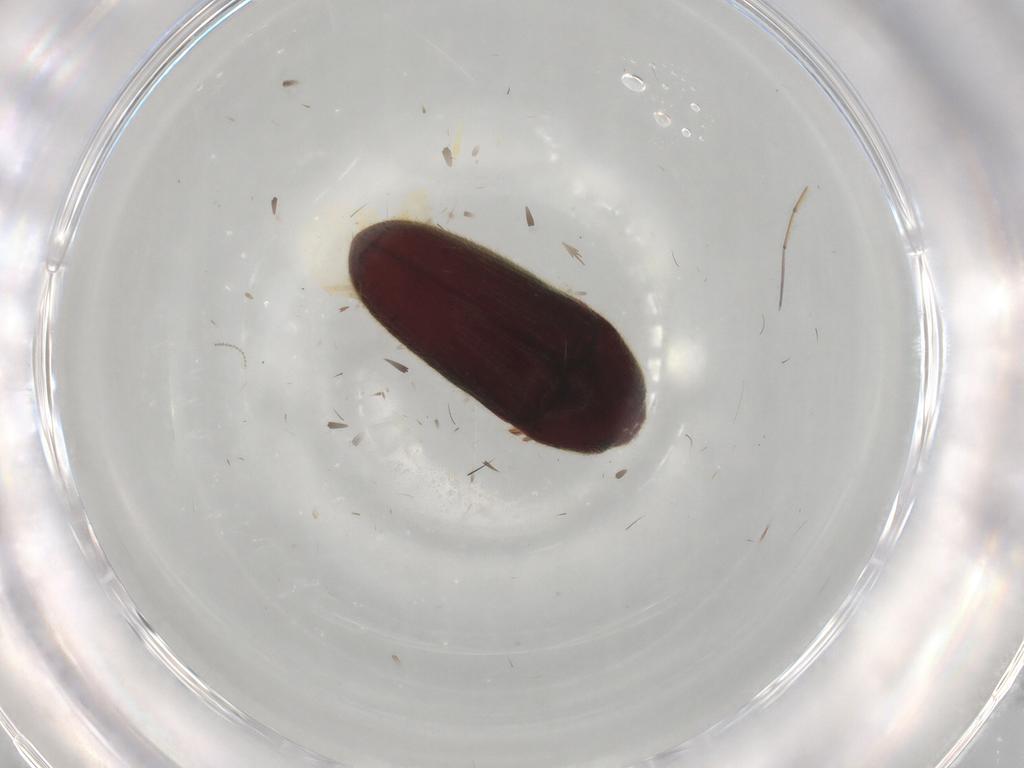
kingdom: Animalia
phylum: Arthropoda
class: Insecta
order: Coleoptera
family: Throscidae
